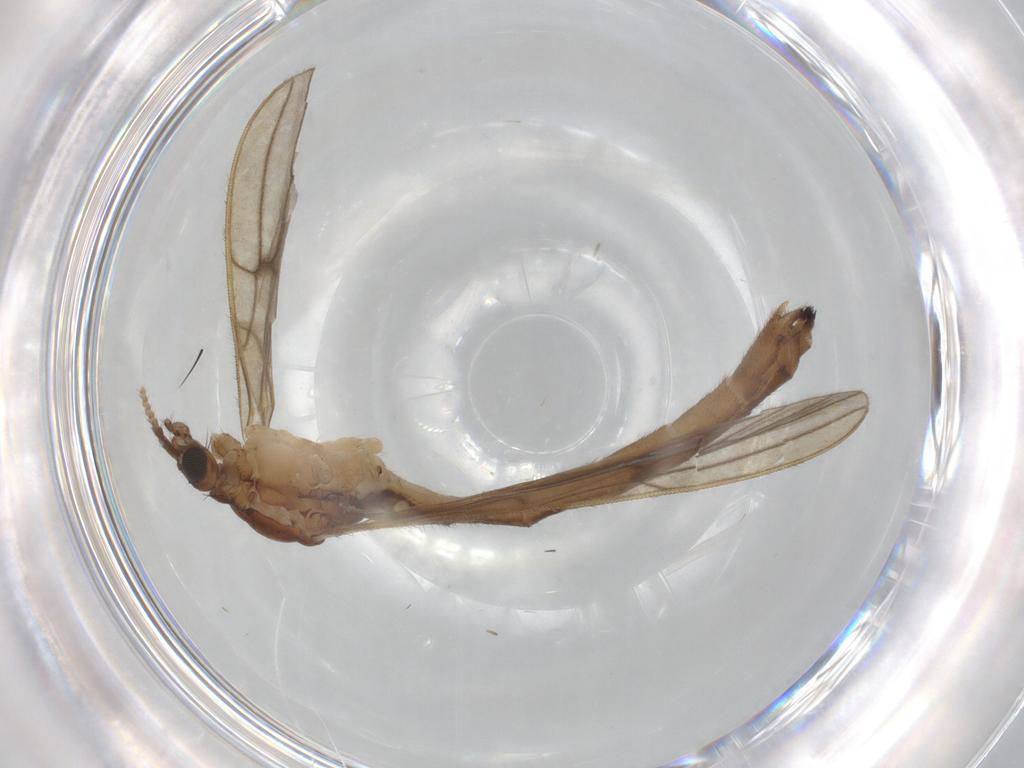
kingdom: Animalia
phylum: Arthropoda
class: Insecta
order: Diptera
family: Limoniidae
